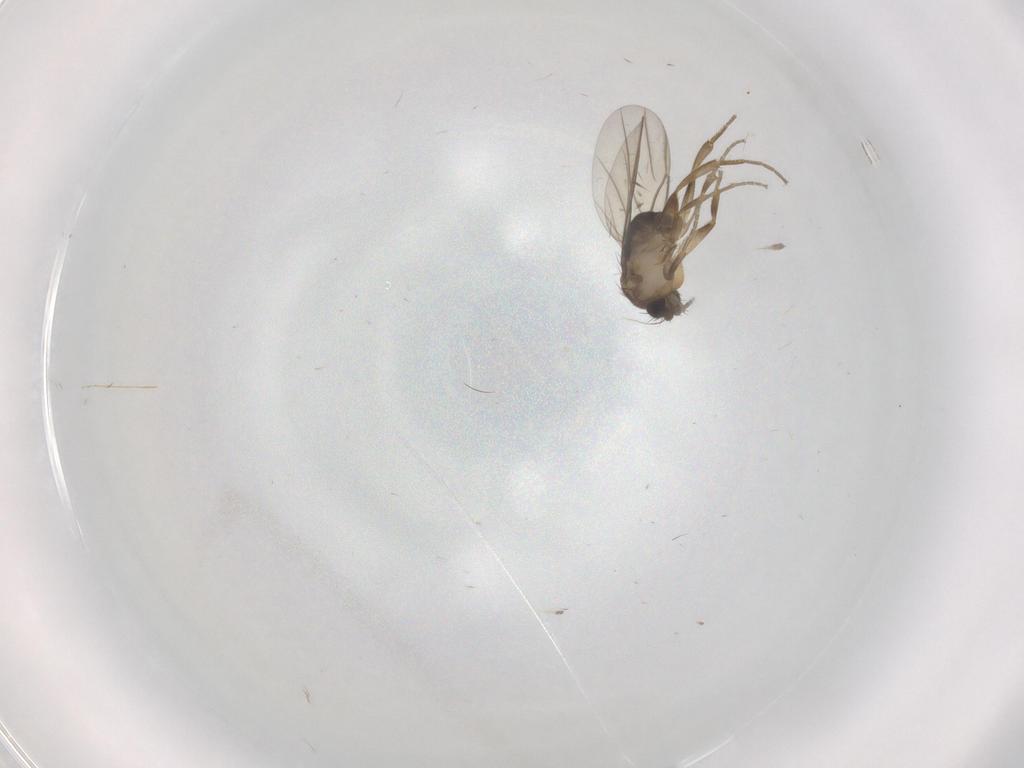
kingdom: Animalia
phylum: Arthropoda
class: Insecta
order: Diptera
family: Phoridae
